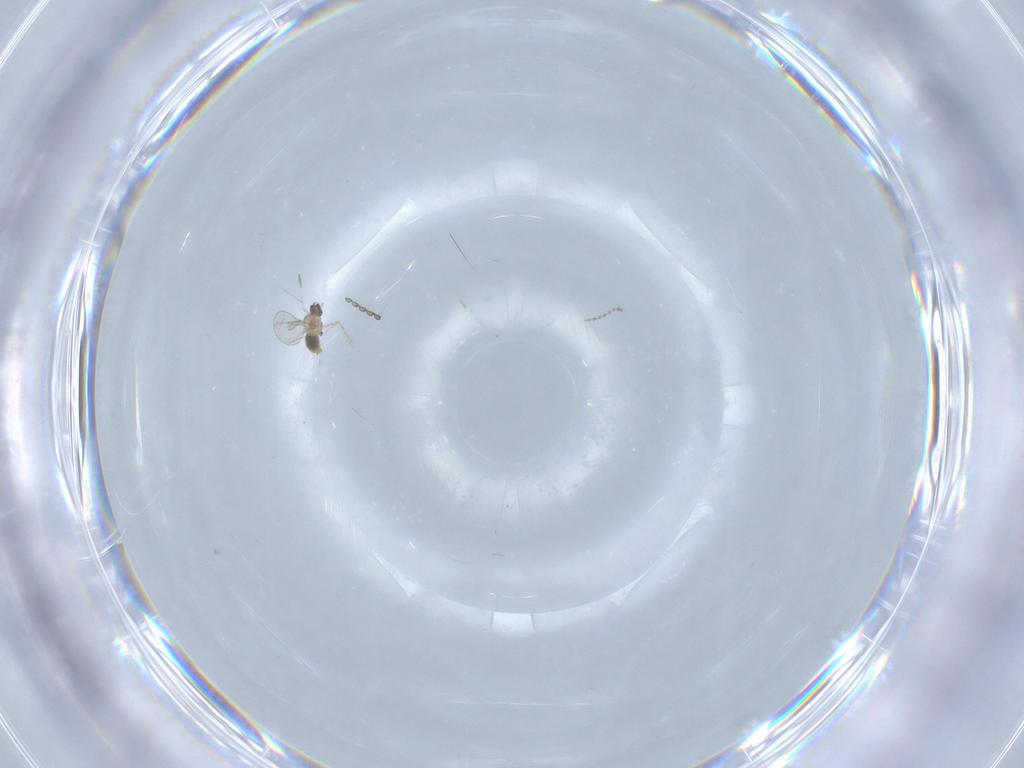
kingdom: Animalia
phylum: Arthropoda
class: Insecta
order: Diptera
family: Cecidomyiidae
